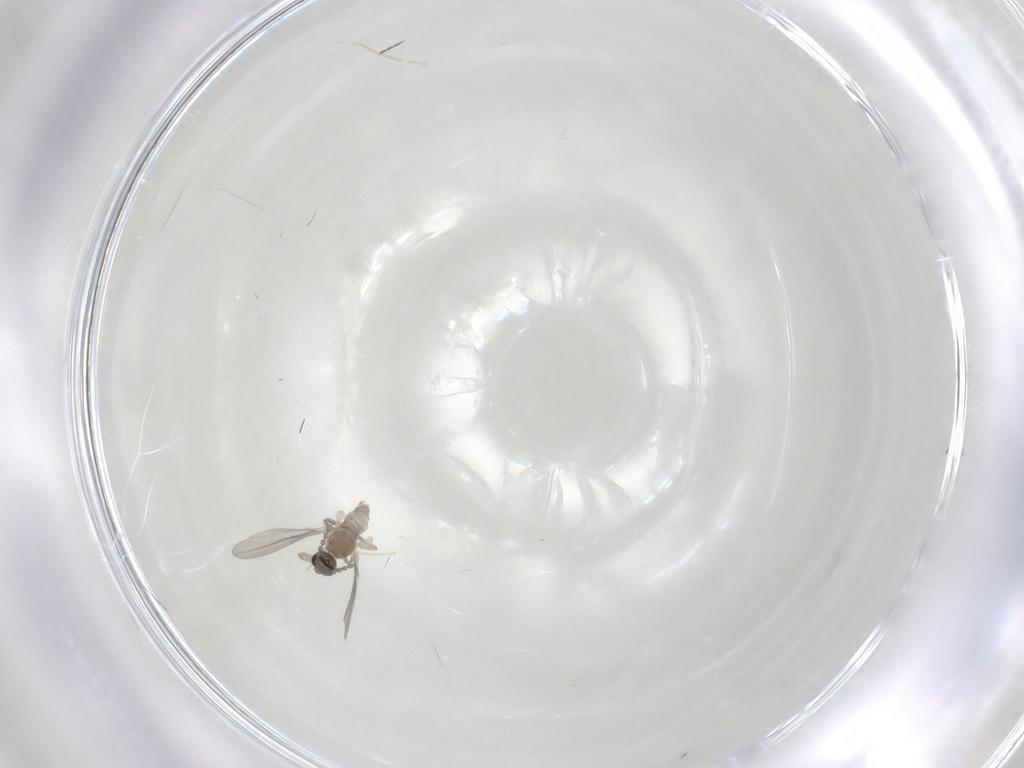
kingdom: Animalia
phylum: Arthropoda
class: Insecta
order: Diptera
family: Cecidomyiidae
